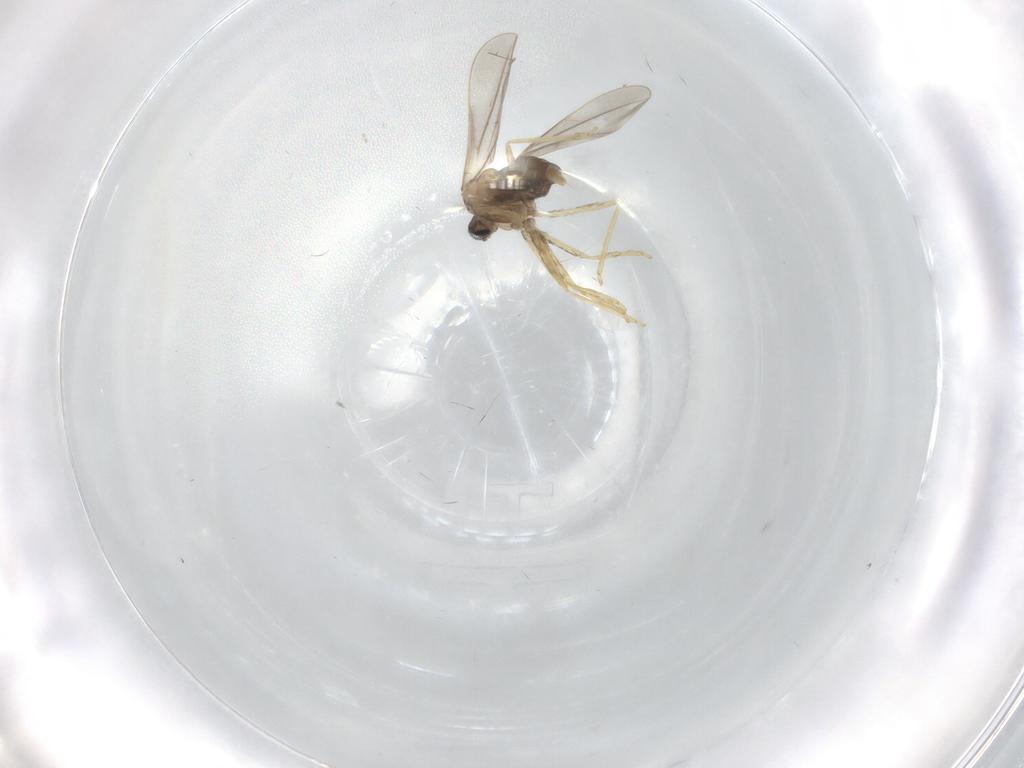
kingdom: Animalia
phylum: Arthropoda
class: Insecta
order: Diptera
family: Cecidomyiidae
